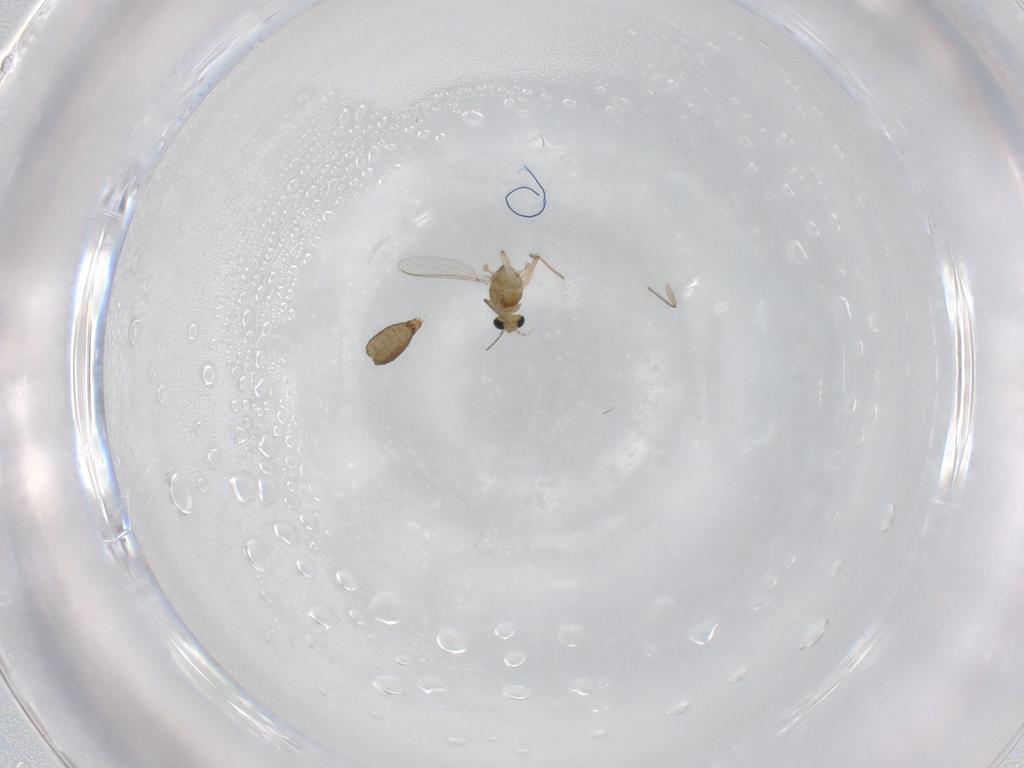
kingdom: Animalia
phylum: Arthropoda
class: Insecta
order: Diptera
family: Chironomidae
